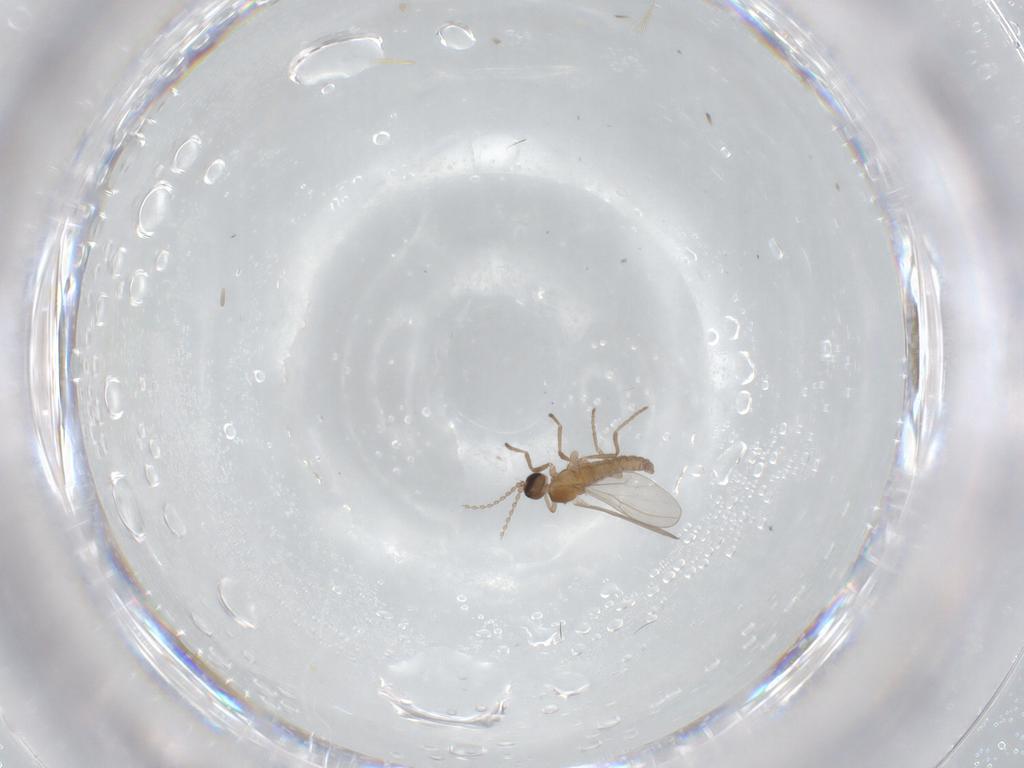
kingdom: Animalia
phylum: Arthropoda
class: Insecta
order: Diptera
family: Cecidomyiidae
